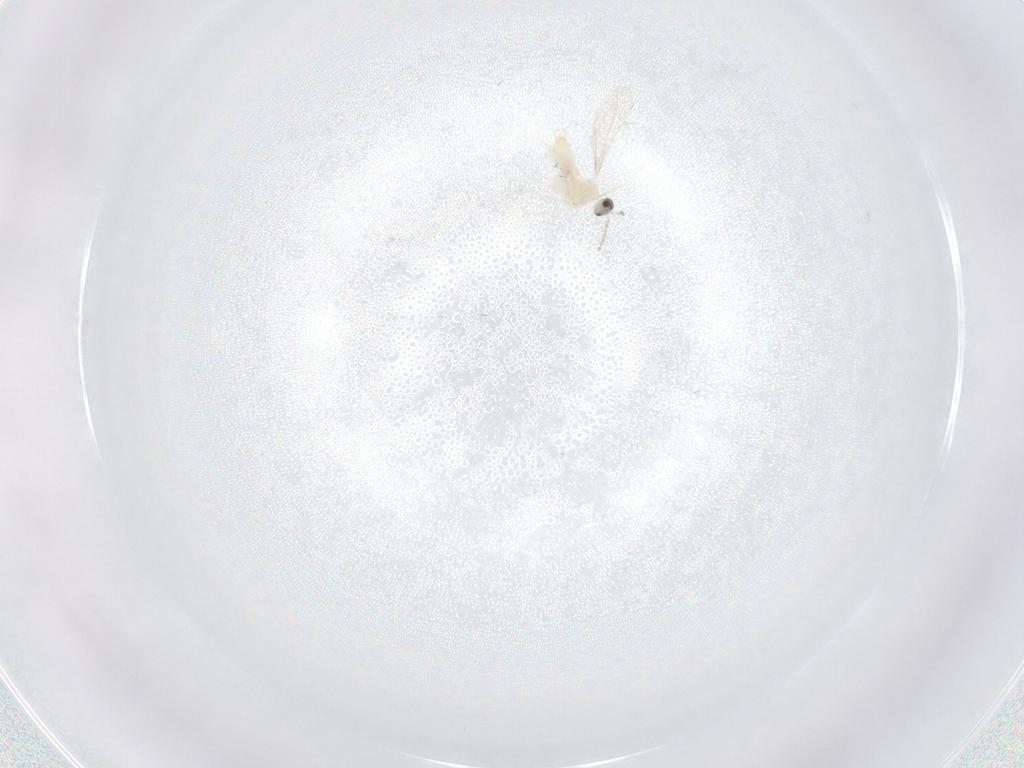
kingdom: Animalia
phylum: Arthropoda
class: Insecta
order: Diptera
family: Cecidomyiidae
